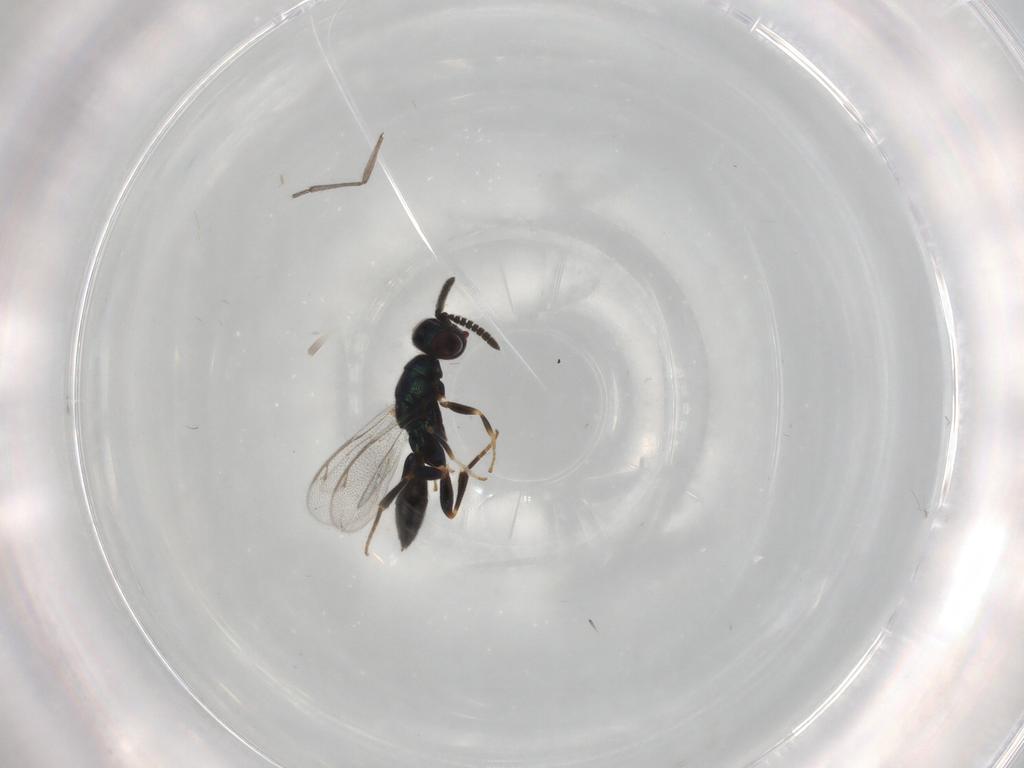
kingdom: Animalia
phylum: Arthropoda
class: Insecta
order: Hymenoptera
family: Cleonyminae
